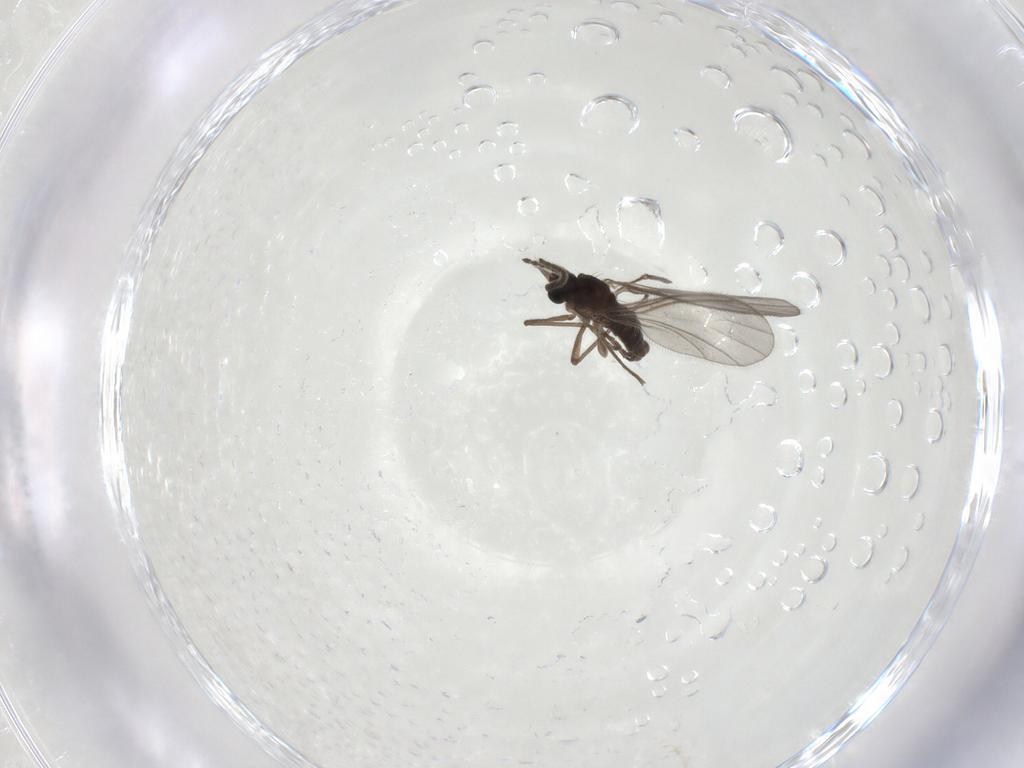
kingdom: Animalia
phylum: Arthropoda
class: Insecta
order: Diptera
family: Sciaridae
